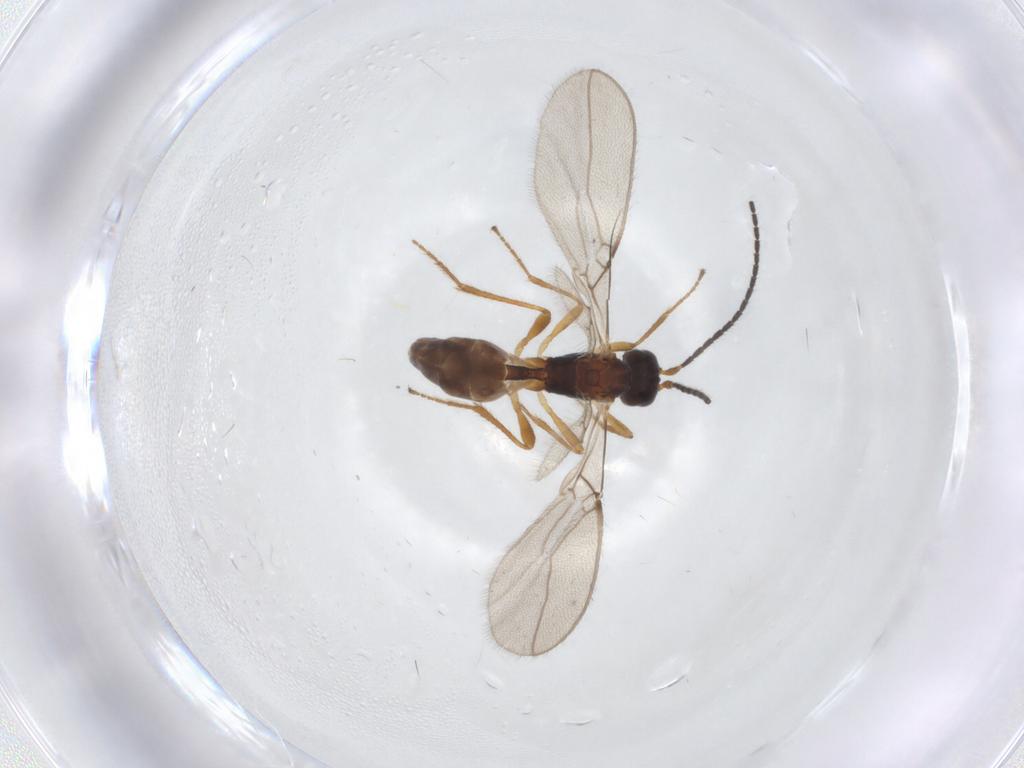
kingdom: Animalia
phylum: Arthropoda
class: Insecta
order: Hymenoptera
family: Braconidae
